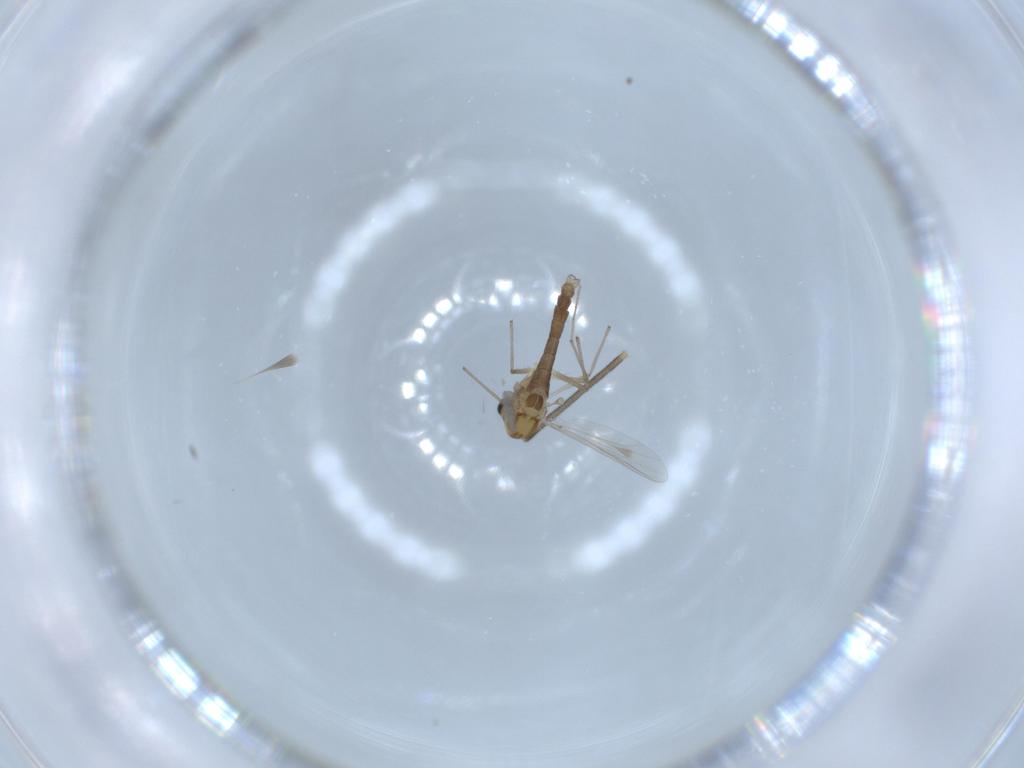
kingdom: Animalia
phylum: Arthropoda
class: Insecta
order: Diptera
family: Chironomidae
